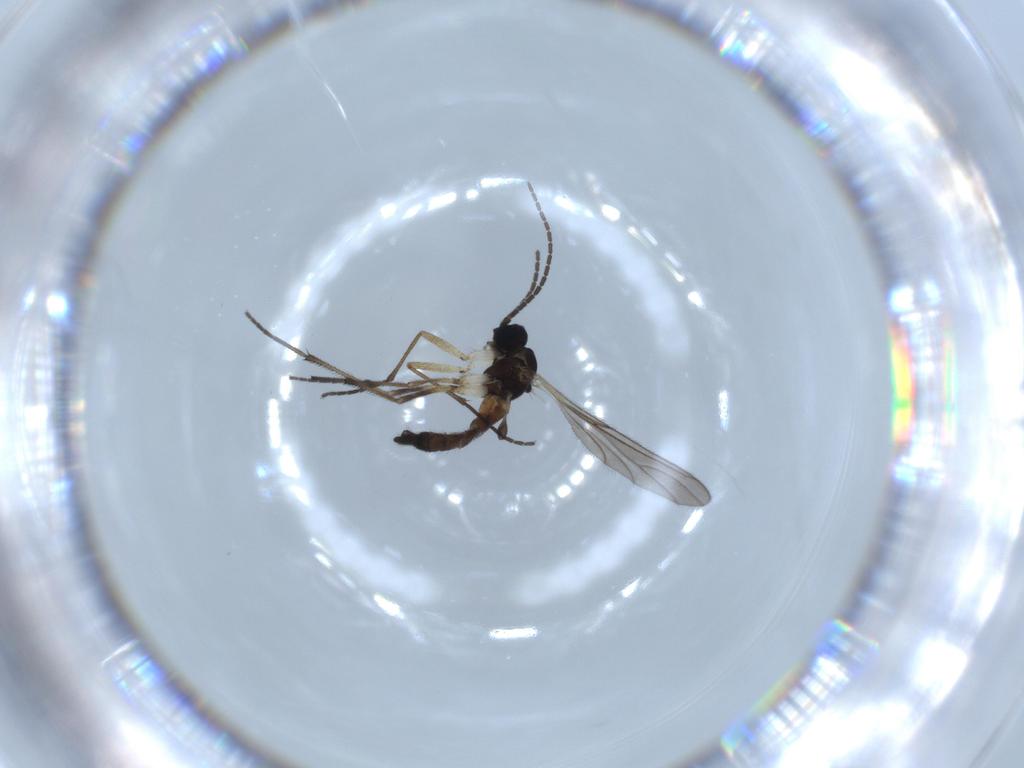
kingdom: Animalia
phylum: Arthropoda
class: Insecta
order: Diptera
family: Sciaridae
